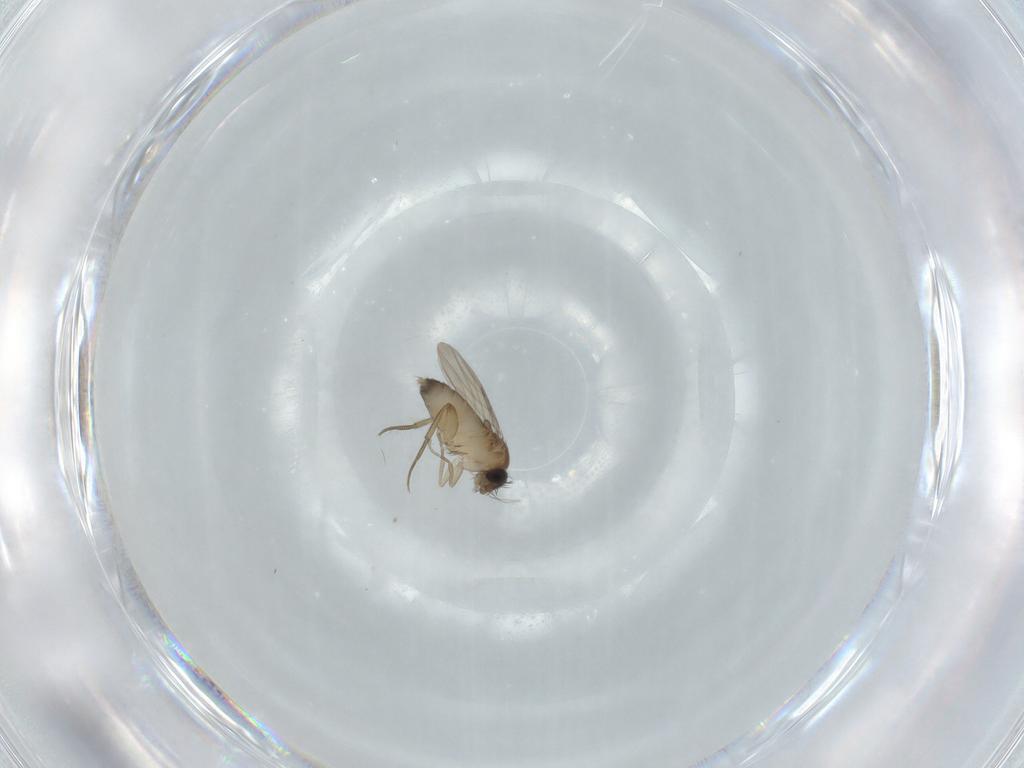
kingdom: Animalia
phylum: Arthropoda
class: Insecta
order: Diptera
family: Phoridae
